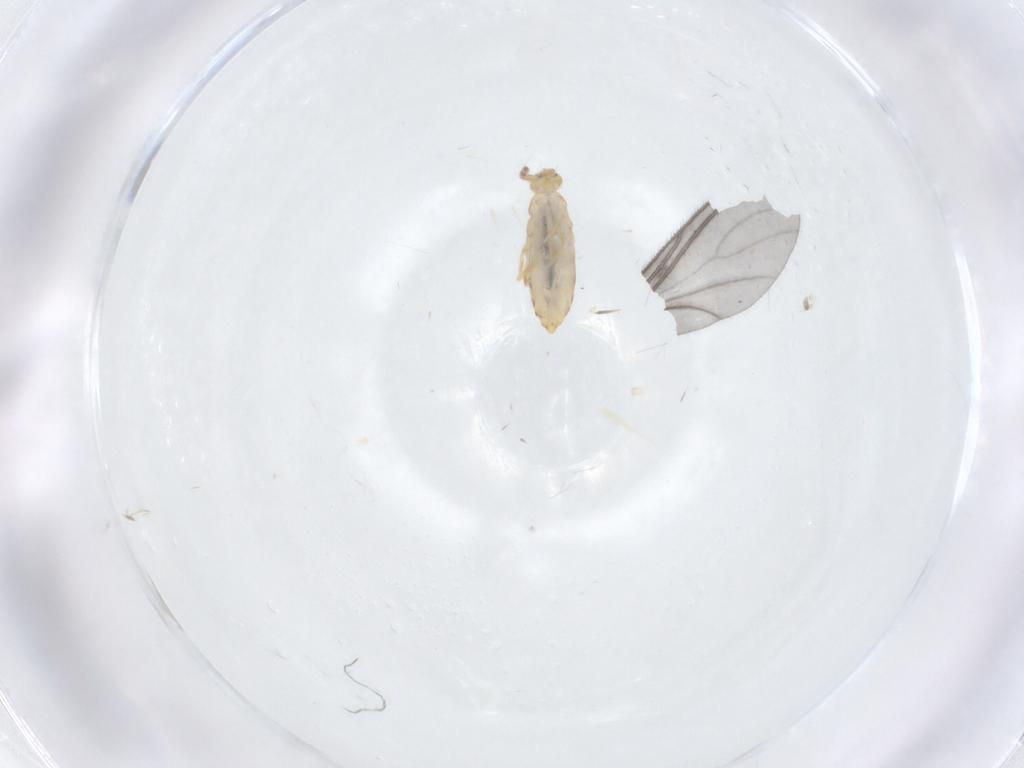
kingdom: Animalia
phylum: Arthropoda
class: Collembola
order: Entomobryomorpha
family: Entomobryidae
